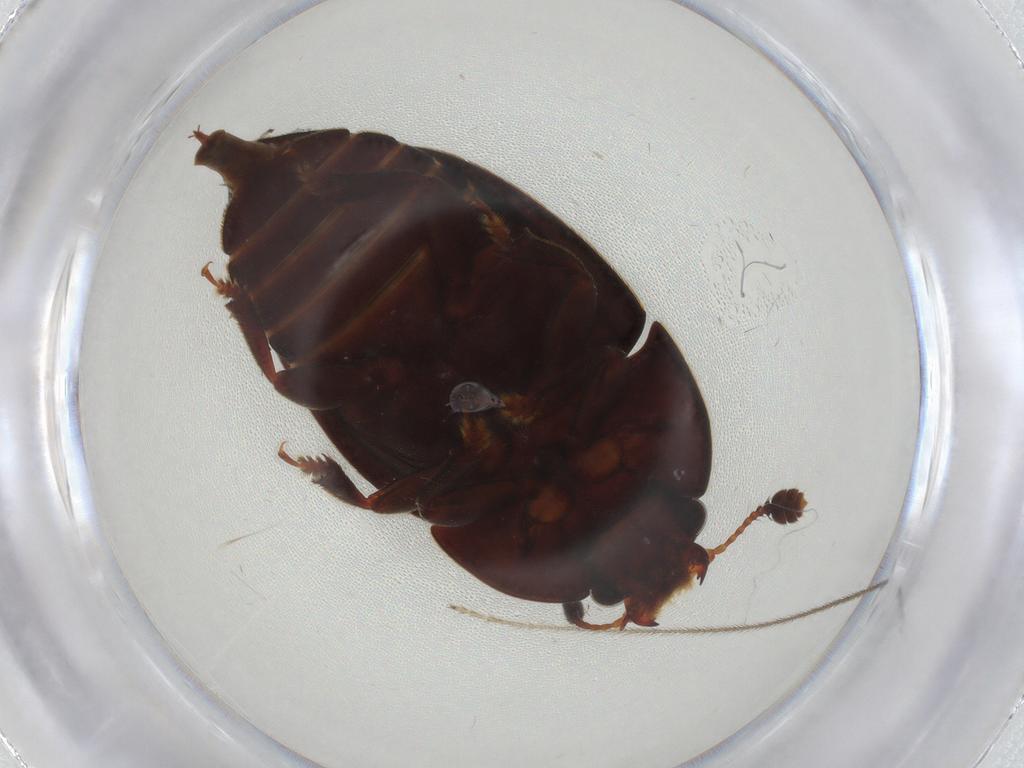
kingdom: Animalia
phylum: Arthropoda
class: Insecta
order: Coleoptera
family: Nitidulidae
